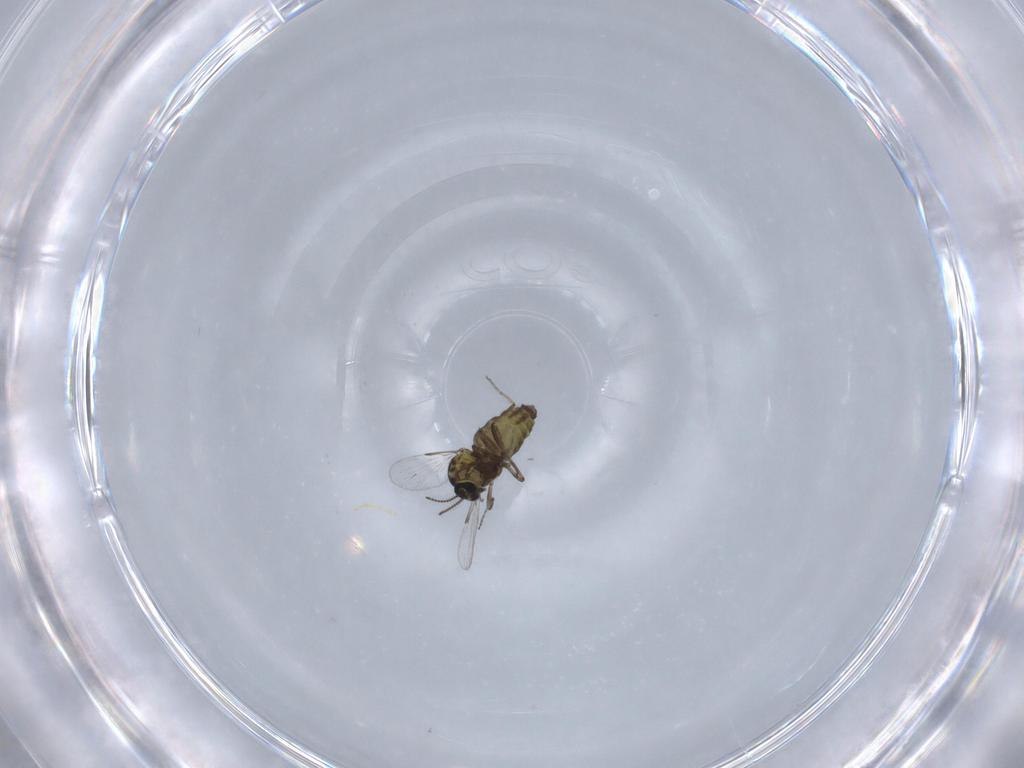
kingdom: Animalia
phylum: Arthropoda
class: Insecta
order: Diptera
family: Ceratopogonidae
